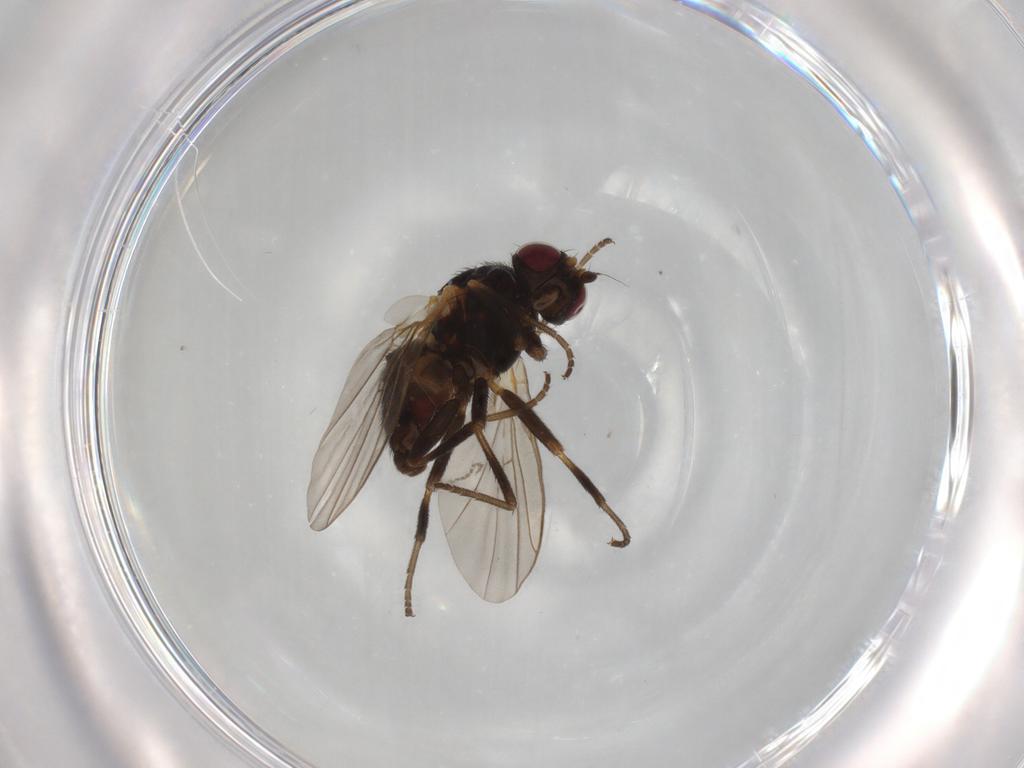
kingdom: Animalia
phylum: Arthropoda
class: Insecta
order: Diptera
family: Agromyzidae
